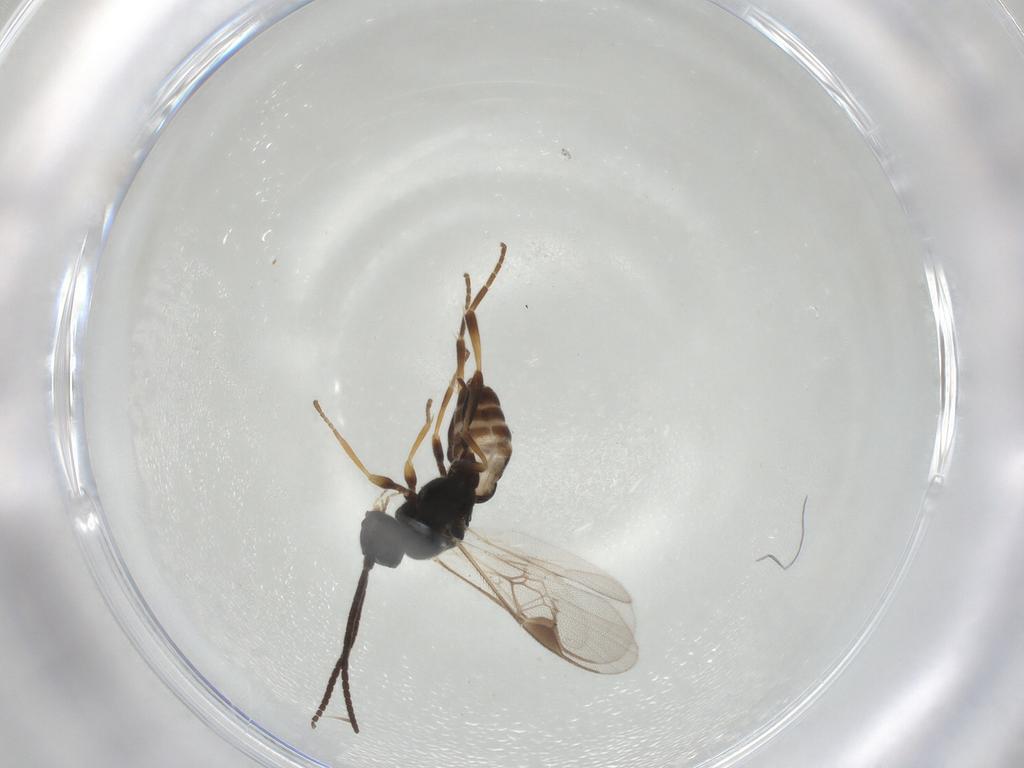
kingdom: Animalia
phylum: Arthropoda
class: Insecta
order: Hymenoptera
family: Braconidae
